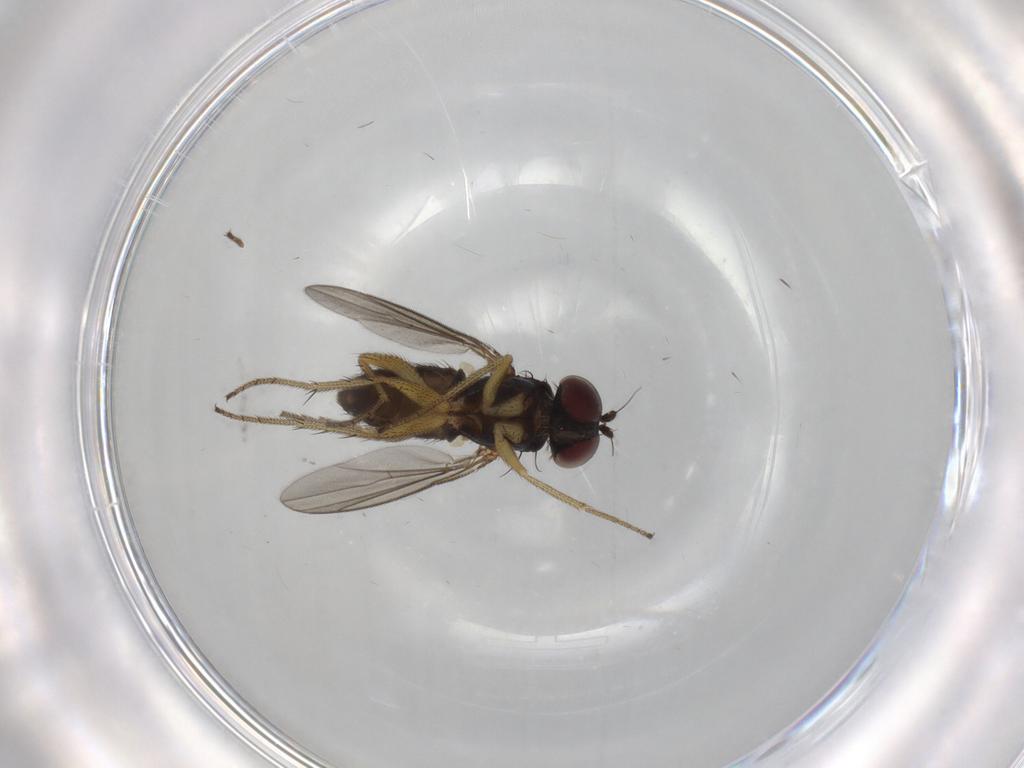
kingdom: Animalia
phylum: Arthropoda
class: Insecta
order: Diptera
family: Dolichopodidae
